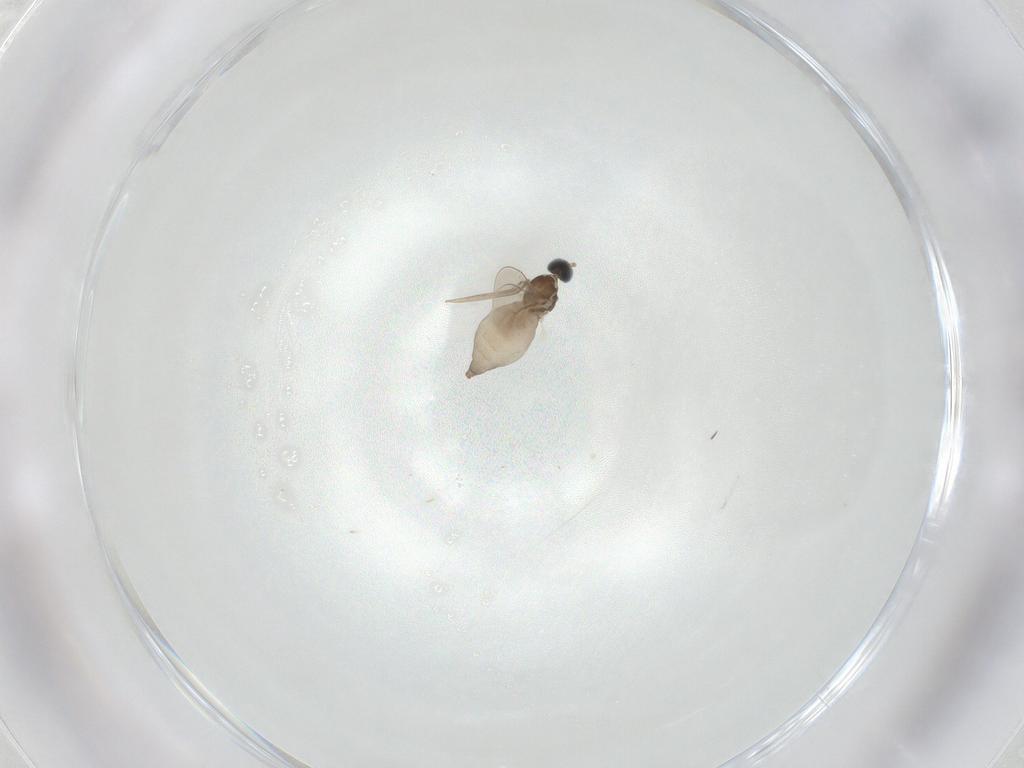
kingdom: Animalia
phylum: Arthropoda
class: Insecta
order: Diptera
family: Cecidomyiidae
